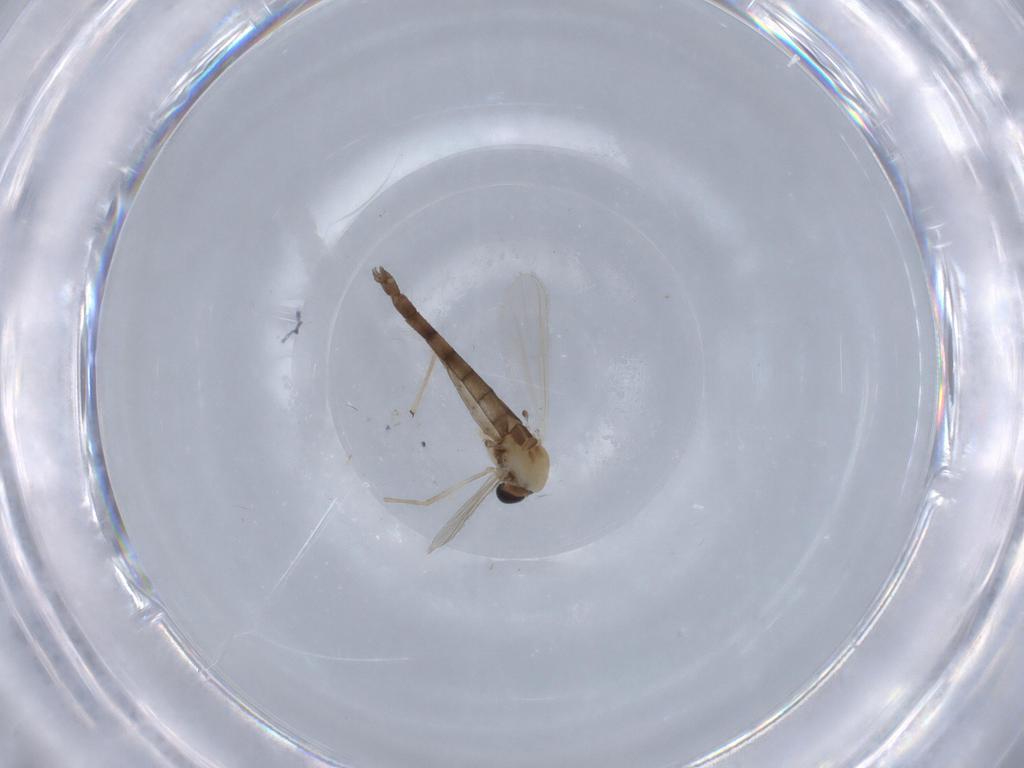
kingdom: Animalia
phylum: Arthropoda
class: Insecta
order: Diptera
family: Chironomidae
